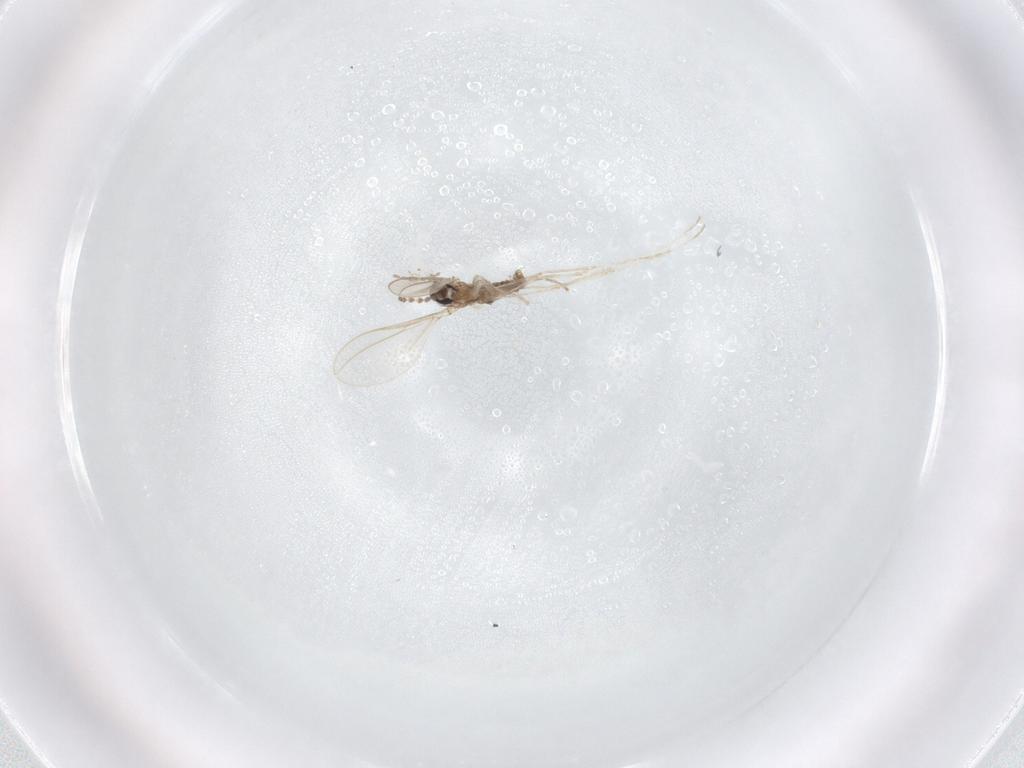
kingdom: Animalia
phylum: Arthropoda
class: Insecta
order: Diptera
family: Cecidomyiidae
